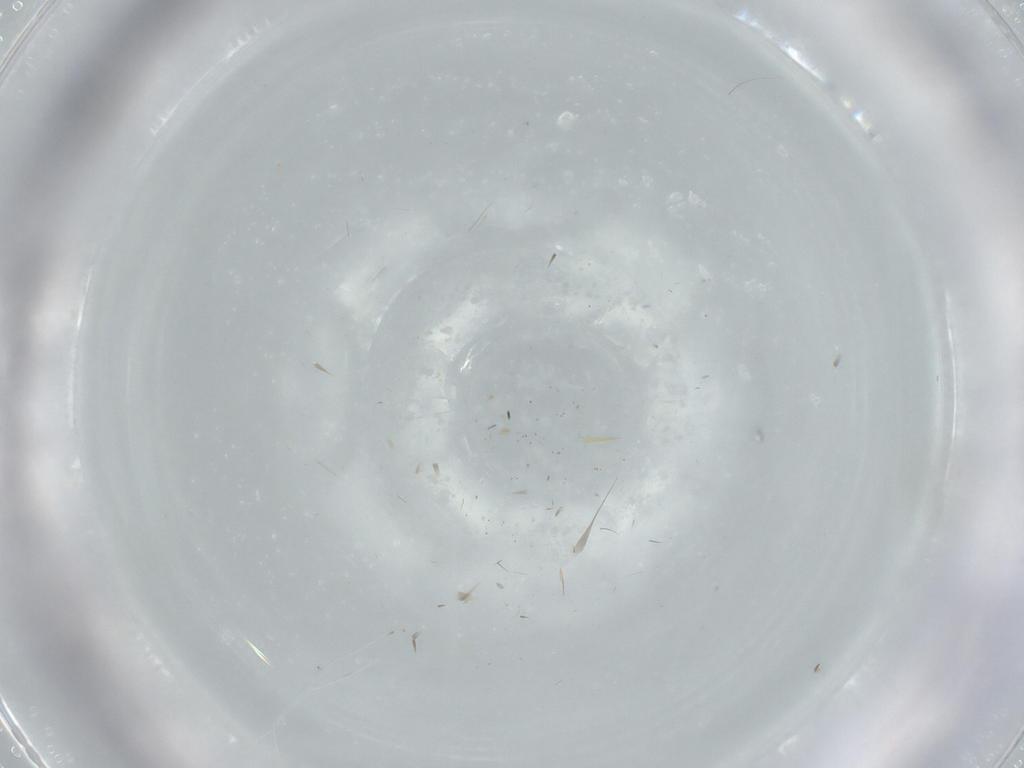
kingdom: Animalia
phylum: Arthropoda
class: Insecta
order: Diptera
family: Asilidae
